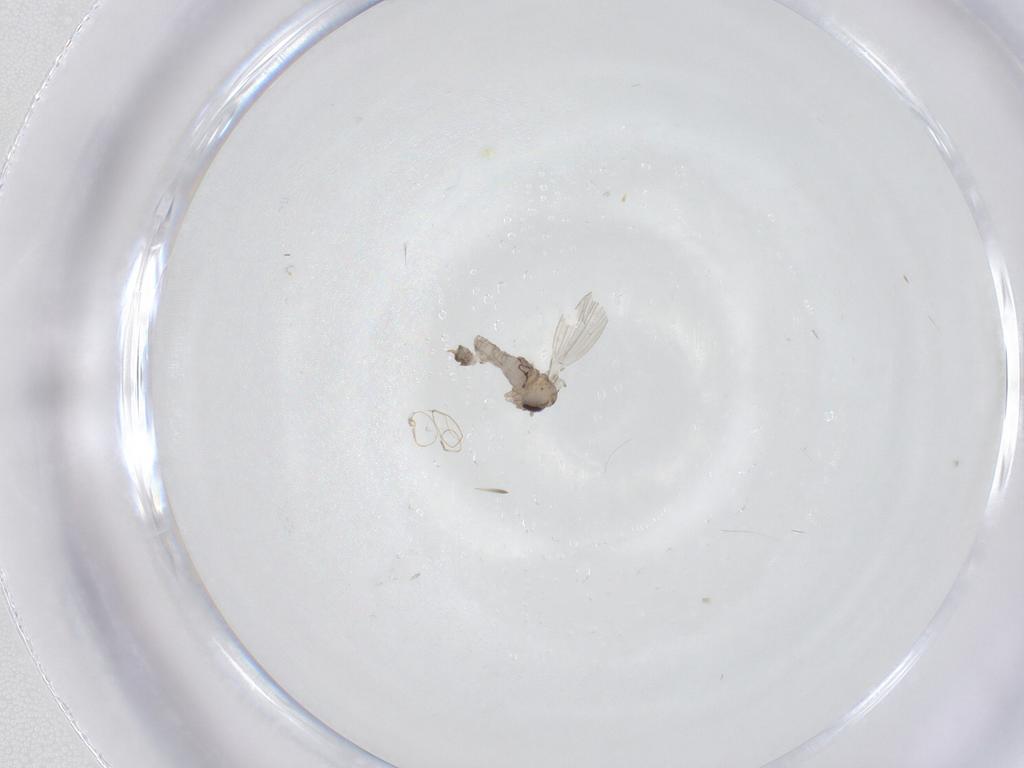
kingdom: Animalia
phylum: Arthropoda
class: Insecta
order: Diptera
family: Psychodidae
